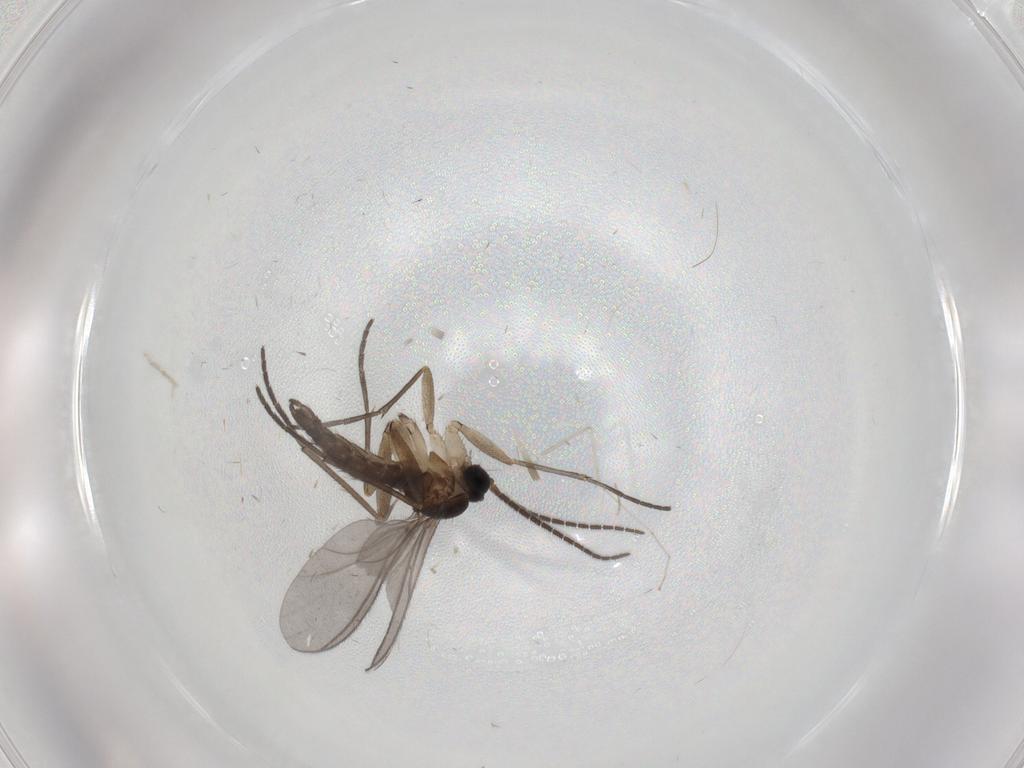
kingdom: Animalia
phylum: Arthropoda
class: Insecta
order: Diptera
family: Sciaridae
